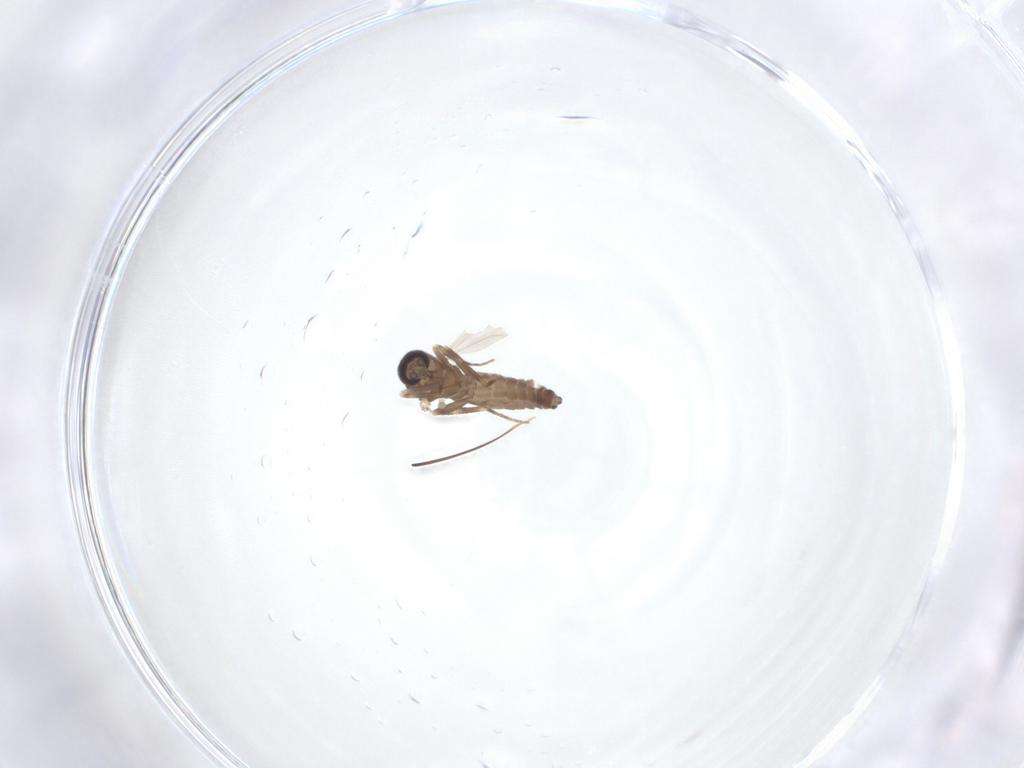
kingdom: Animalia
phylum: Arthropoda
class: Insecta
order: Diptera
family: Ceratopogonidae
